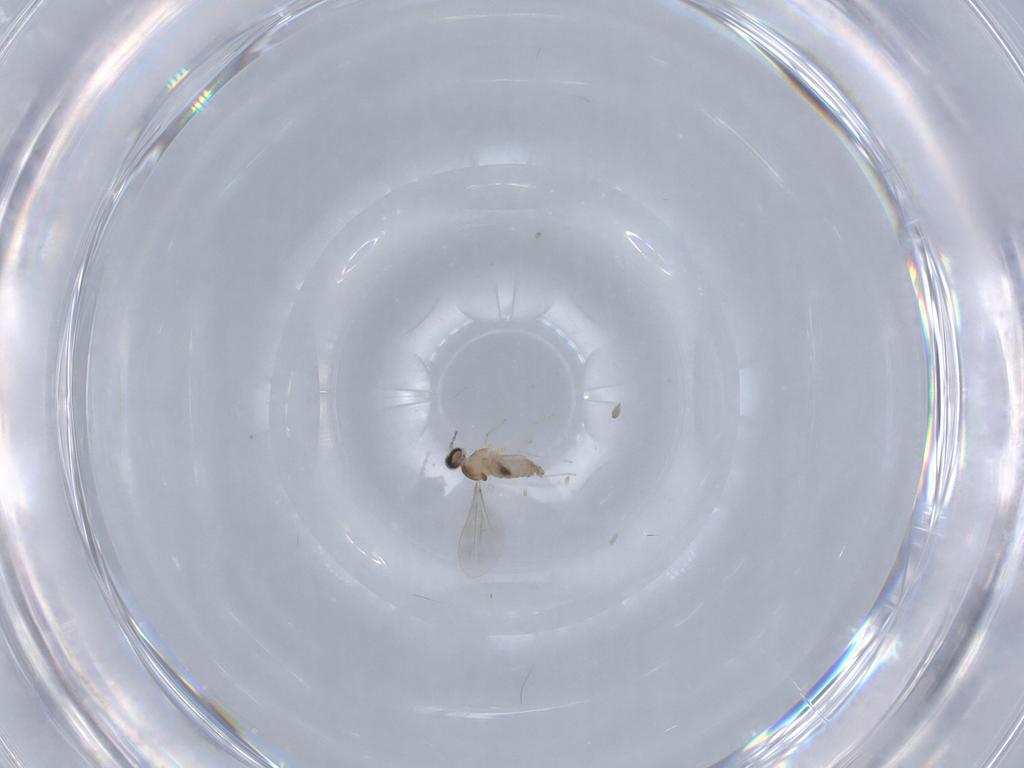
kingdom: Animalia
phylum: Arthropoda
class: Insecta
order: Diptera
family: Cecidomyiidae
